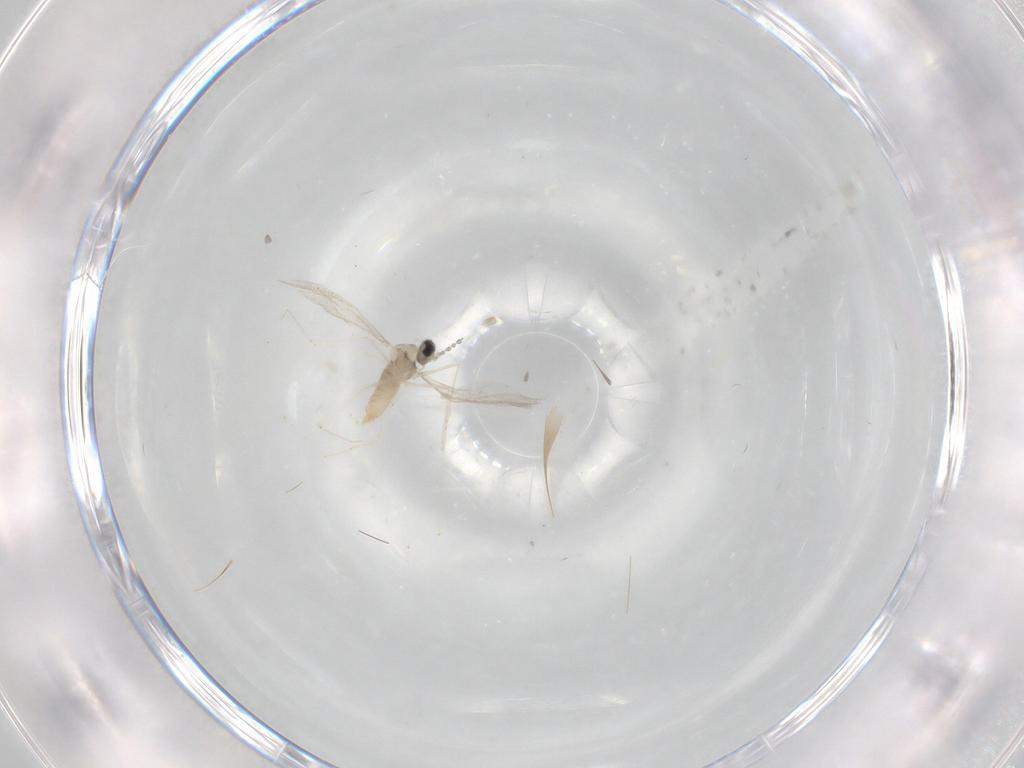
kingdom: Animalia
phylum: Arthropoda
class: Insecta
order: Diptera
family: Cecidomyiidae
